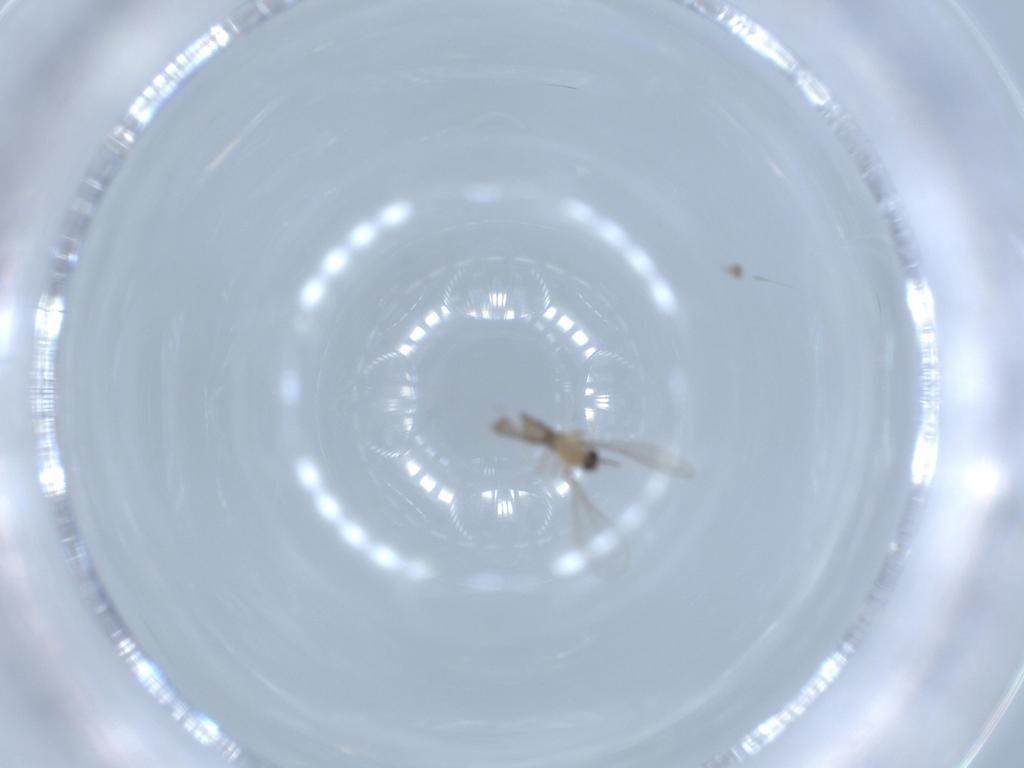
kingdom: Animalia
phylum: Arthropoda
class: Insecta
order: Diptera
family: Cecidomyiidae
